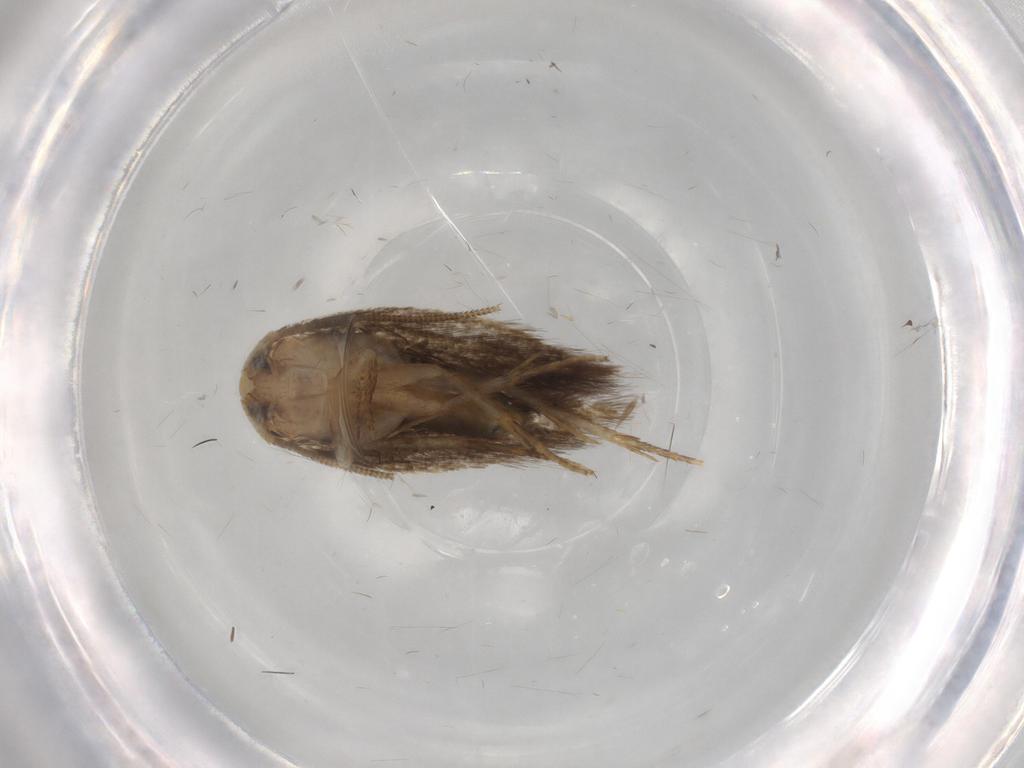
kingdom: Animalia
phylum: Arthropoda
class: Insecta
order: Lepidoptera
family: Opostegidae
